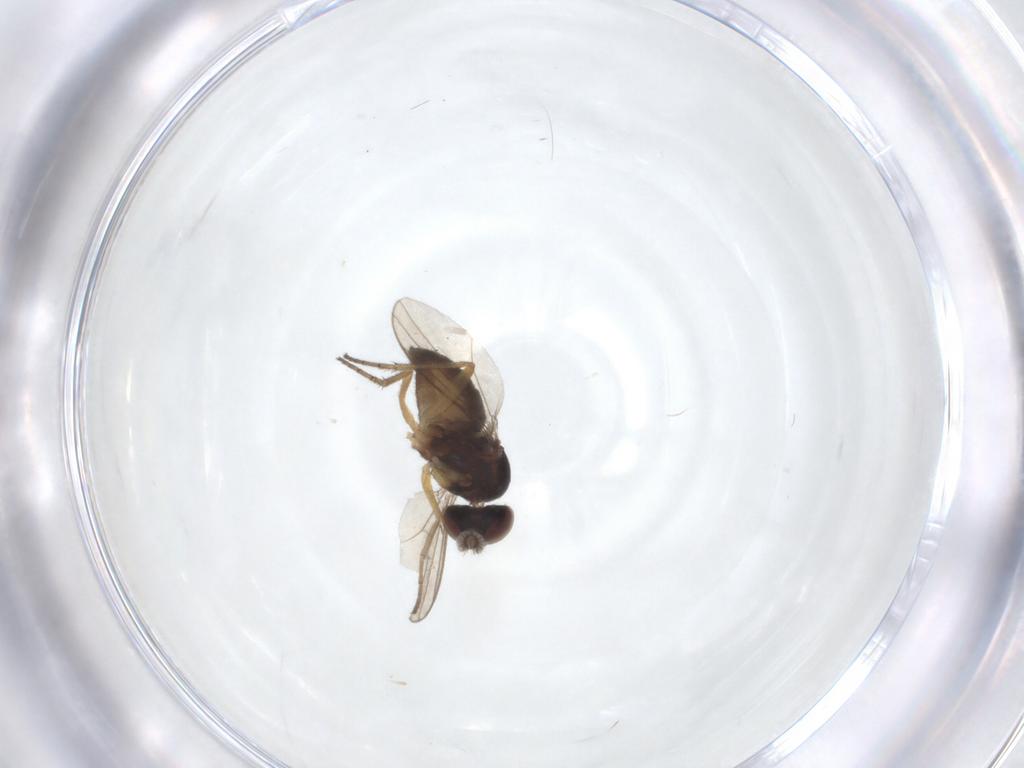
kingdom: Animalia
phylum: Arthropoda
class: Insecta
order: Diptera
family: Dolichopodidae
